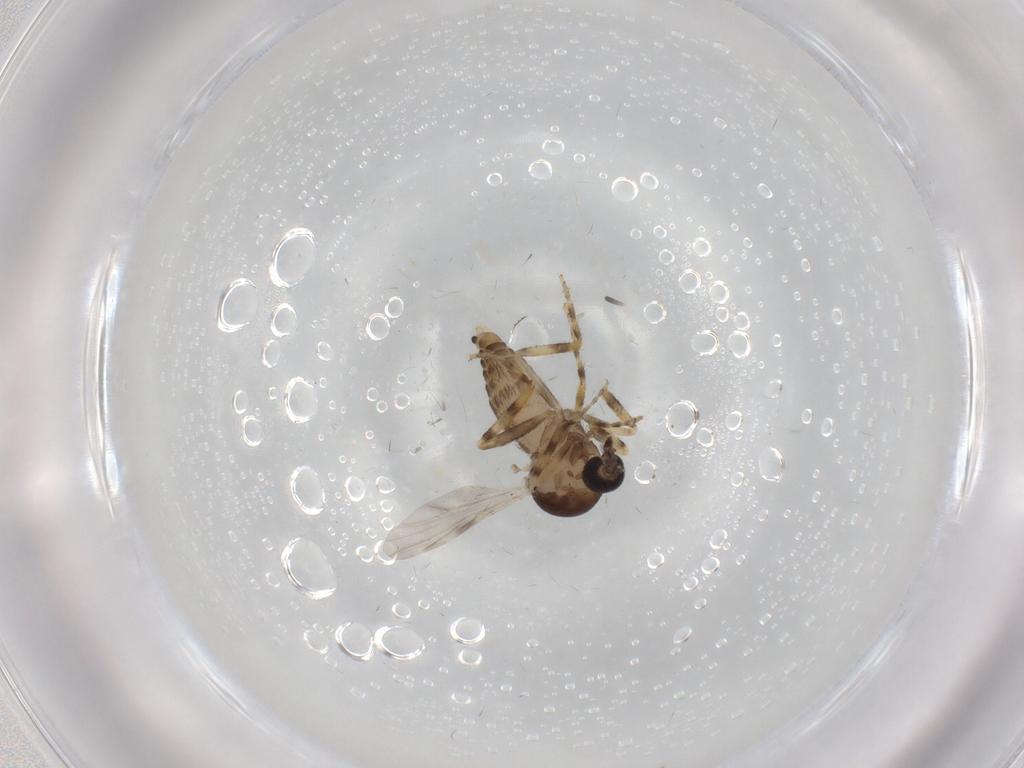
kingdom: Animalia
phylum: Arthropoda
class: Insecta
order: Diptera
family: Ceratopogonidae
